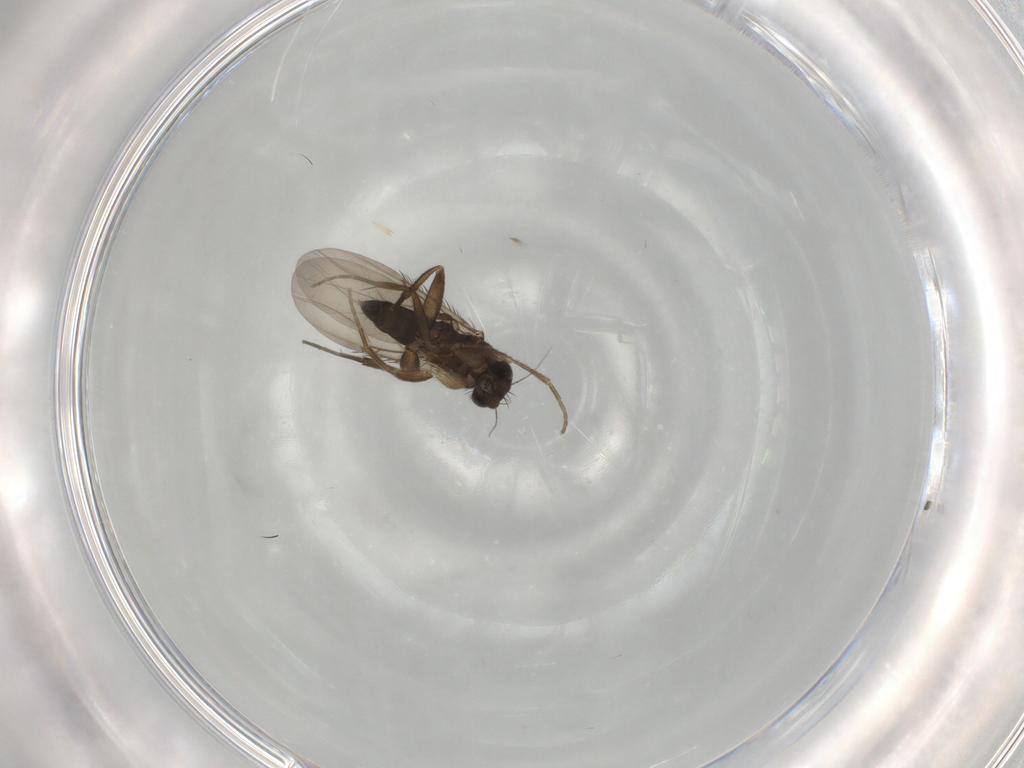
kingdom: Animalia
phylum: Arthropoda
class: Insecta
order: Diptera
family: Phoridae
